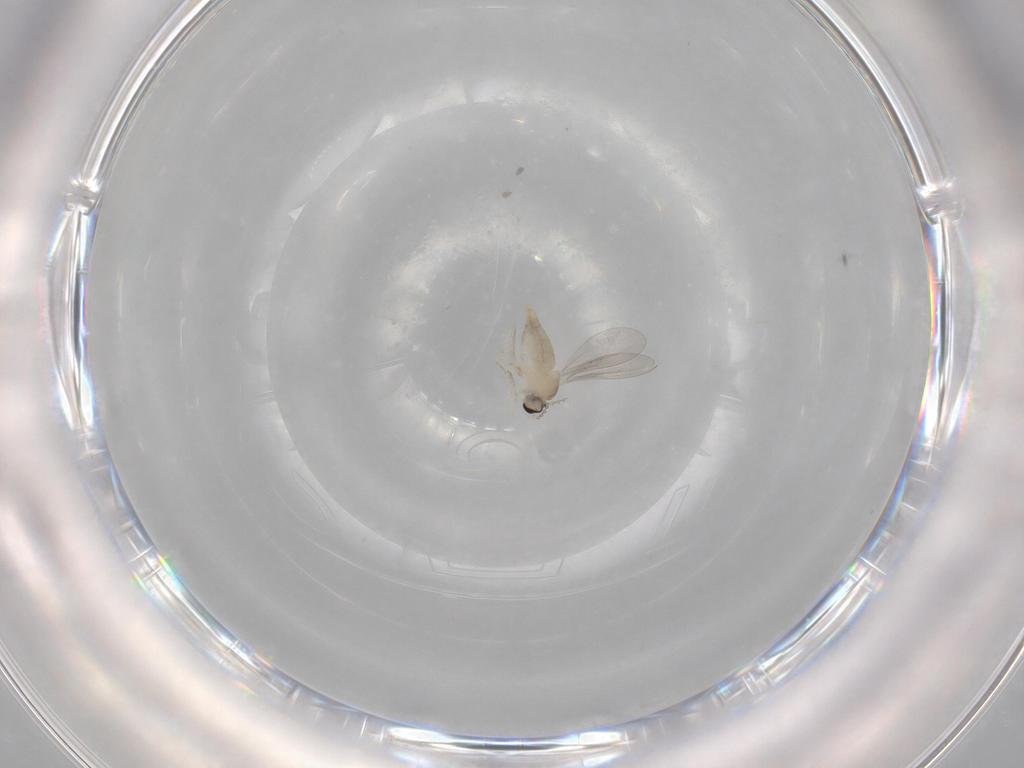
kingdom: Animalia
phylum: Arthropoda
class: Insecta
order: Diptera
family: Cecidomyiidae
